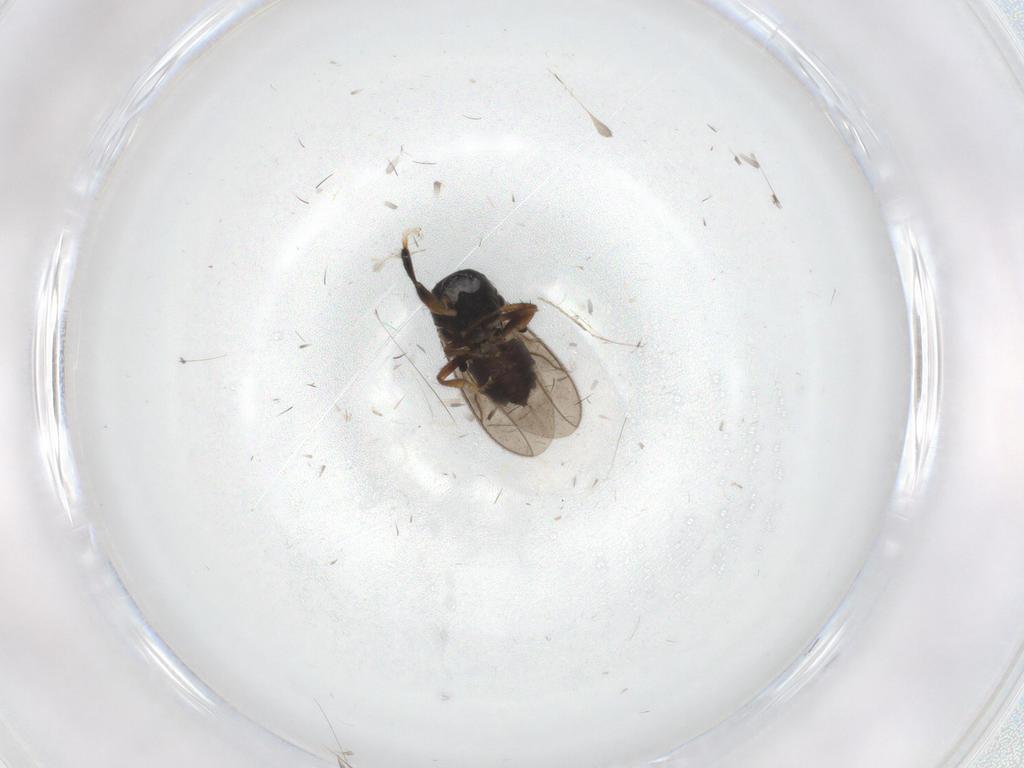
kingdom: Animalia
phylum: Arthropoda
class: Insecta
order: Diptera
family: Sphaeroceridae
